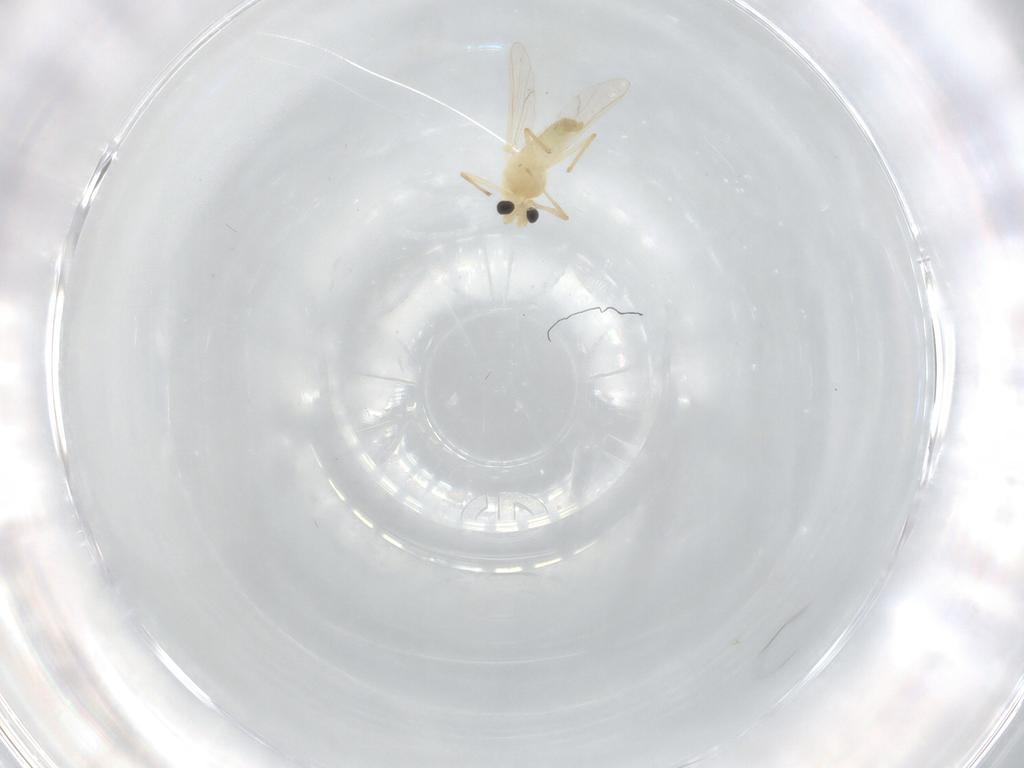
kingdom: Animalia
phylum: Arthropoda
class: Insecta
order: Diptera
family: Chironomidae
